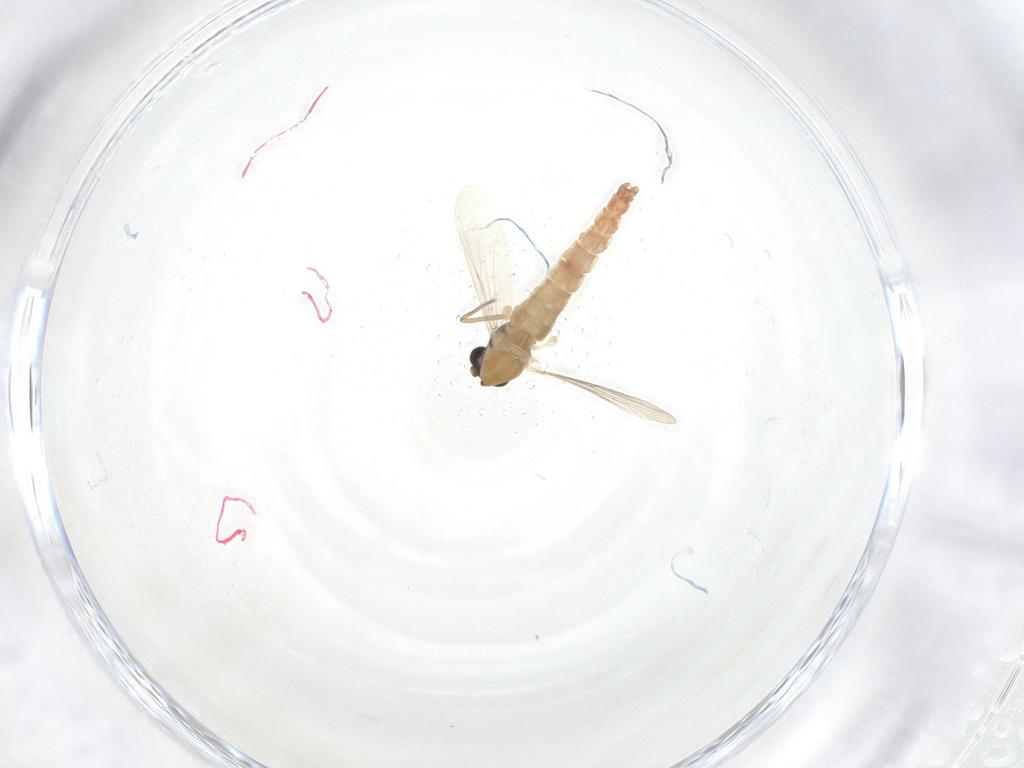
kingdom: Animalia
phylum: Arthropoda
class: Insecta
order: Diptera
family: Chironomidae
